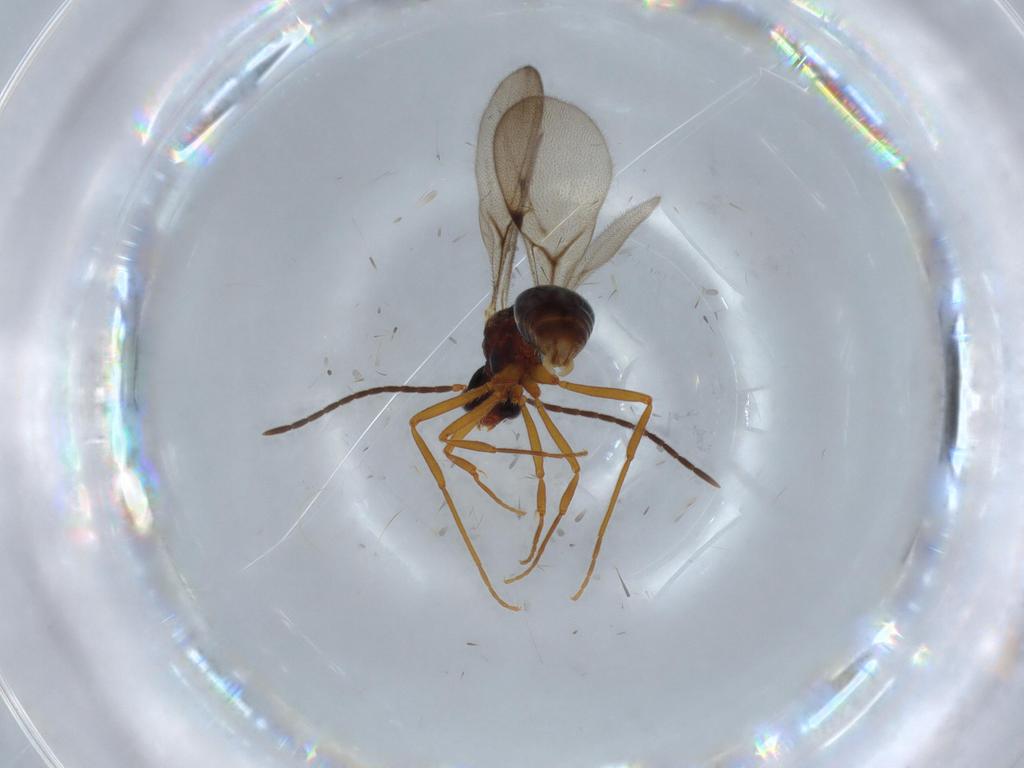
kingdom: Animalia
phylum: Arthropoda
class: Insecta
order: Hymenoptera
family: Formicidae
